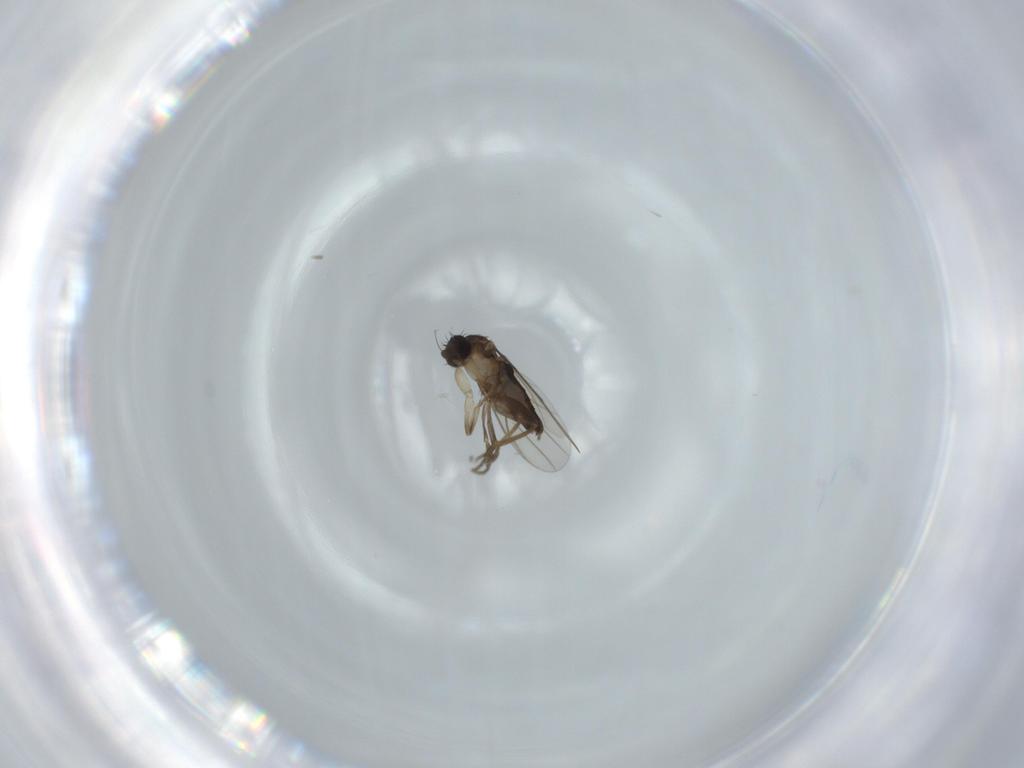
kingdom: Animalia
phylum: Arthropoda
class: Insecta
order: Diptera
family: Phoridae
